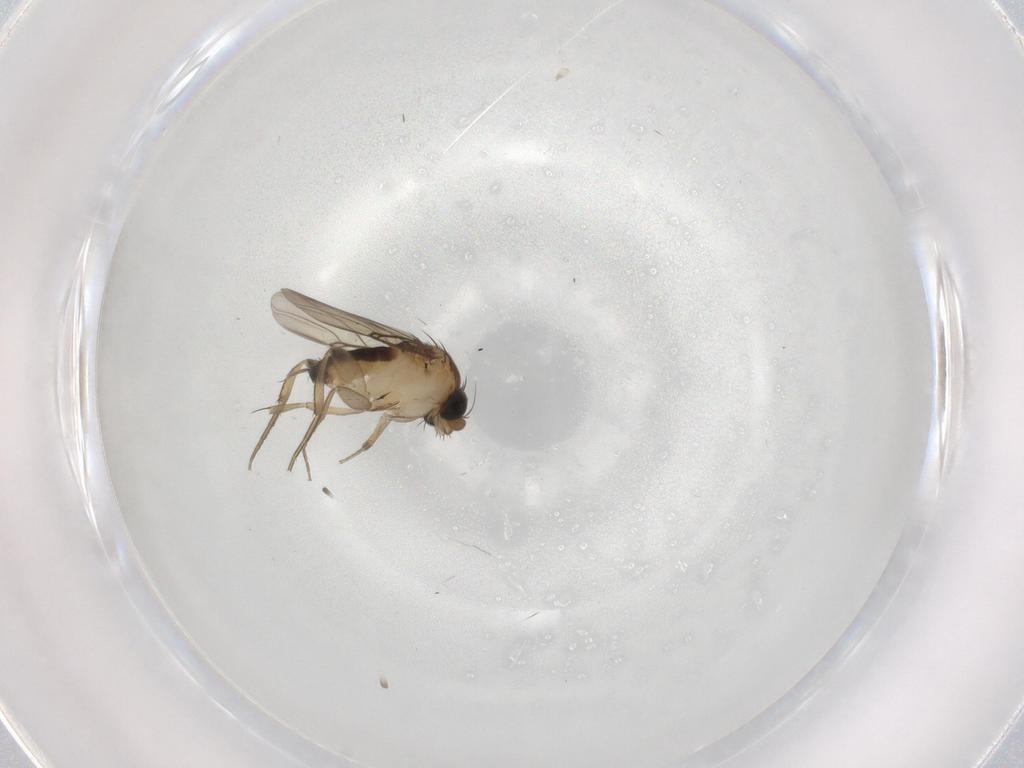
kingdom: Animalia
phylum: Arthropoda
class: Insecta
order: Diptera
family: Phoridae
